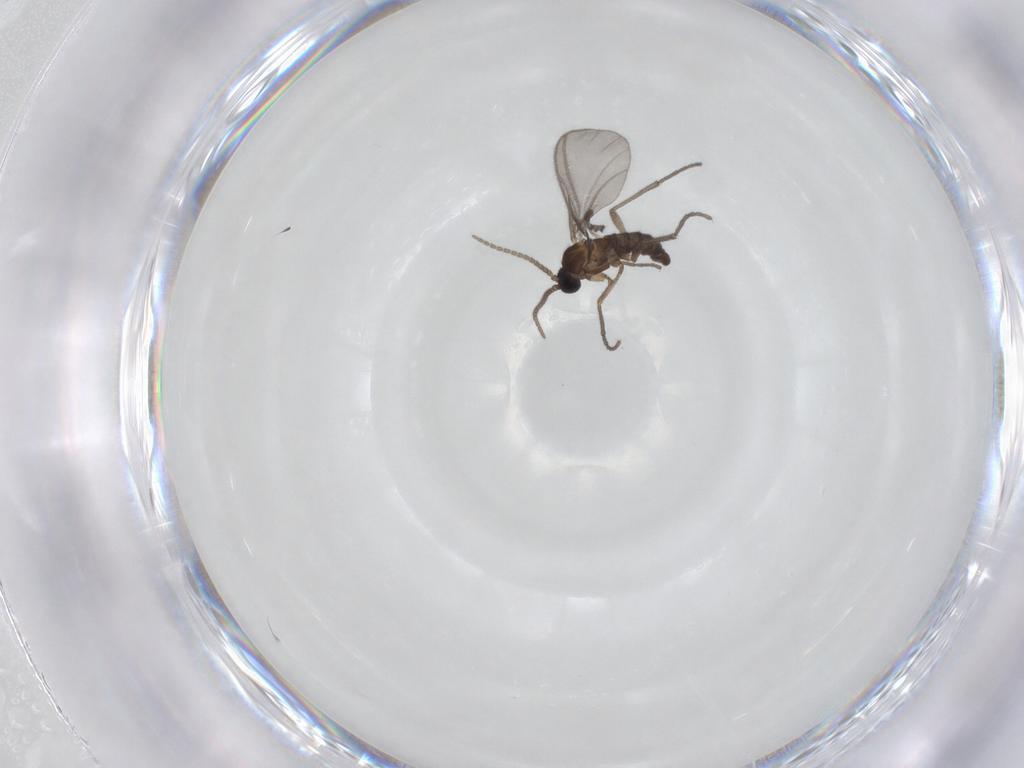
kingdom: Animalia
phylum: Arthropoda
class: Insecta
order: Diptera
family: Sciaridae
